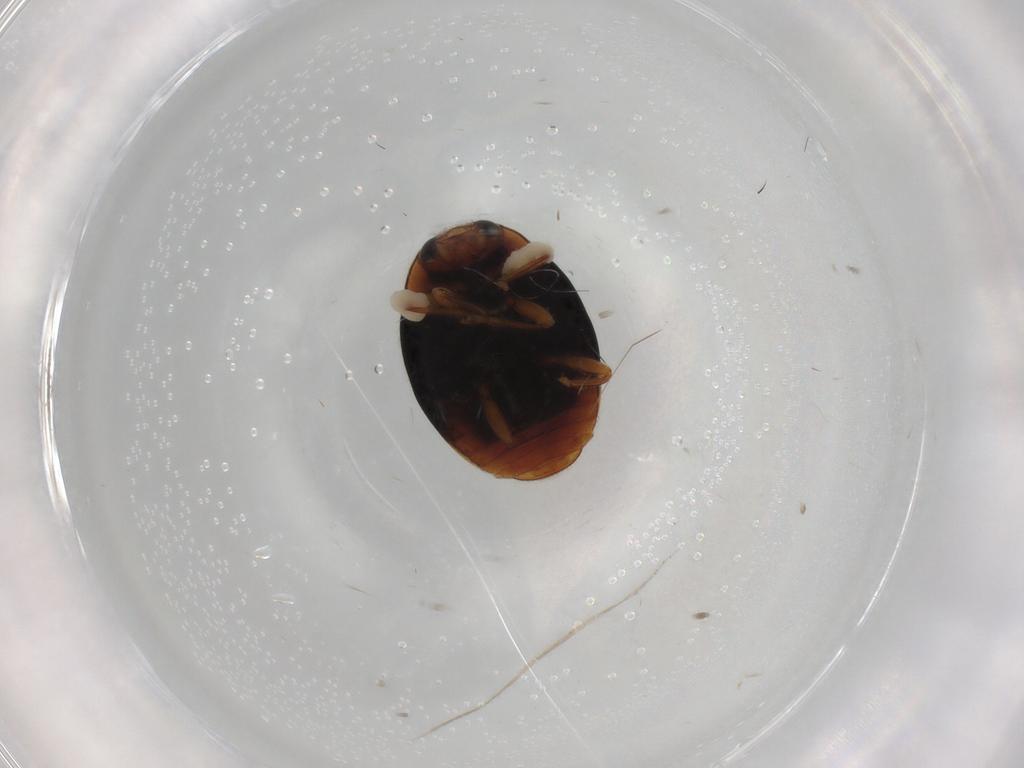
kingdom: Animalia
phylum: Arthropoda
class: Insecta
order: Coleoptera
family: Coccinellidae
